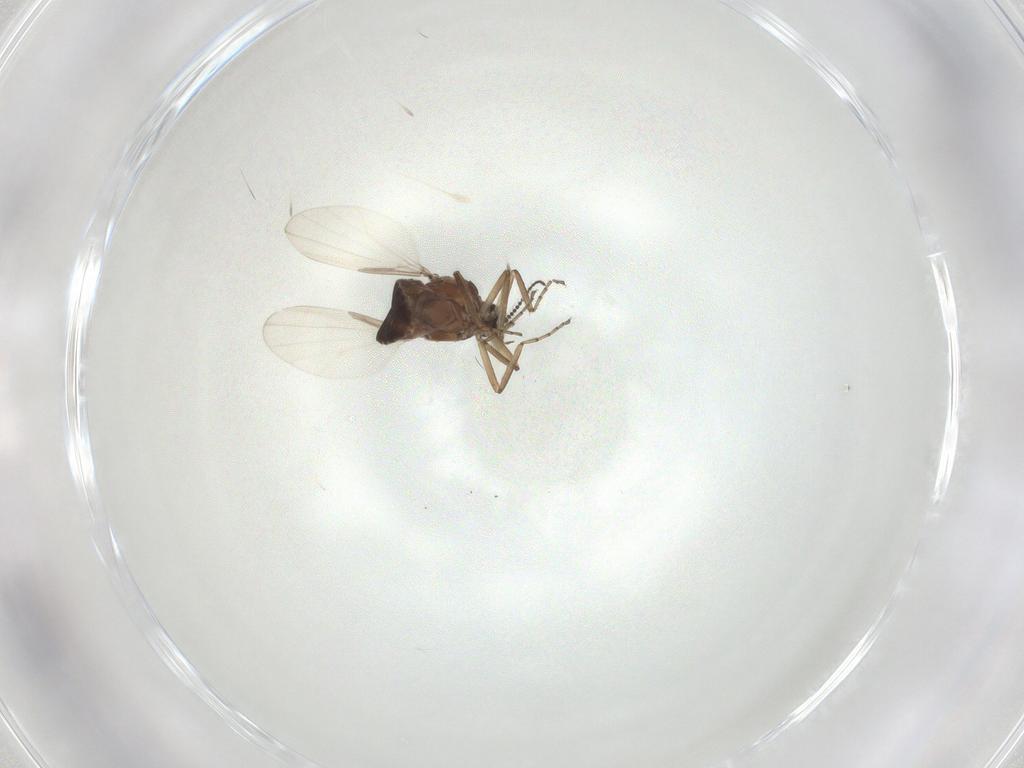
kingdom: Animalia
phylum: Arthropoda
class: Insecta
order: Diptera
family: Ceratopogonidae
